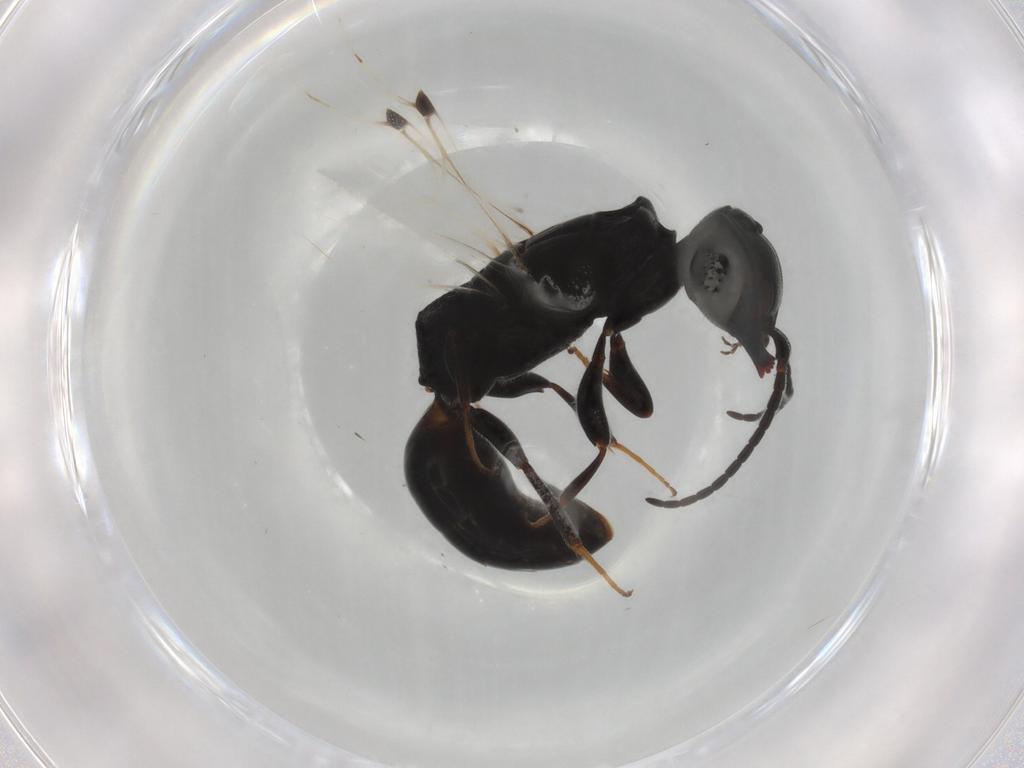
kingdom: Animalia
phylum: Arthropoda
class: Insecta
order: Hymenoptera
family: Bethylidae
